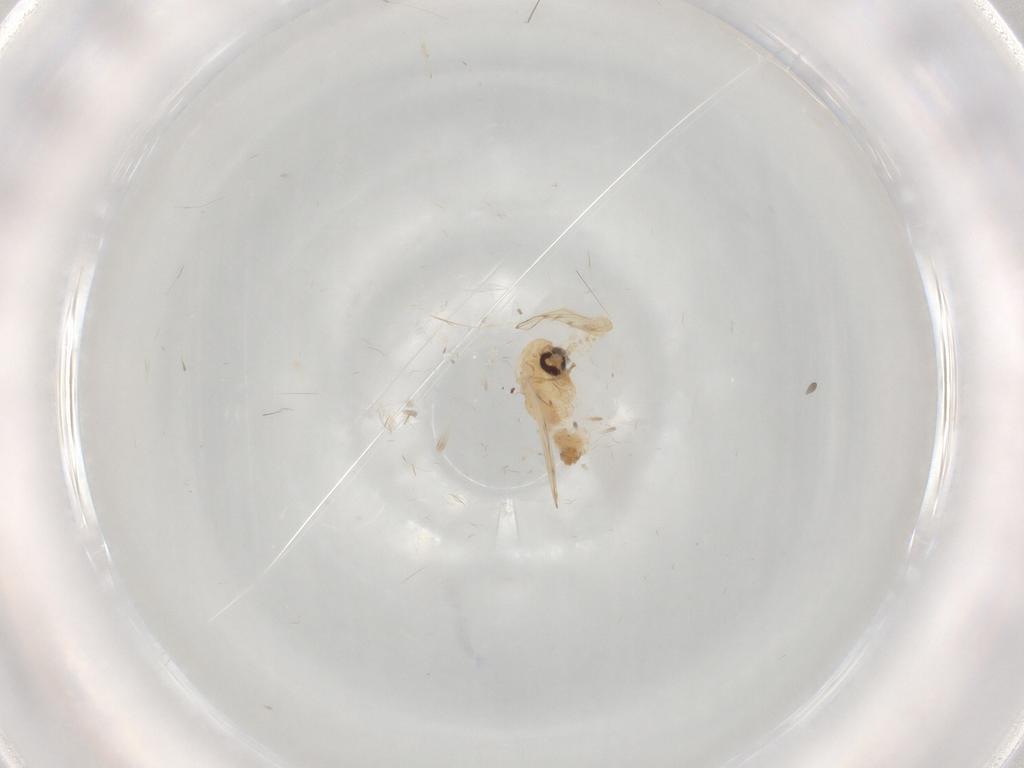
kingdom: Animalia
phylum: Arthropoda
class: Insecta
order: Diptera
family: Psychodidae
